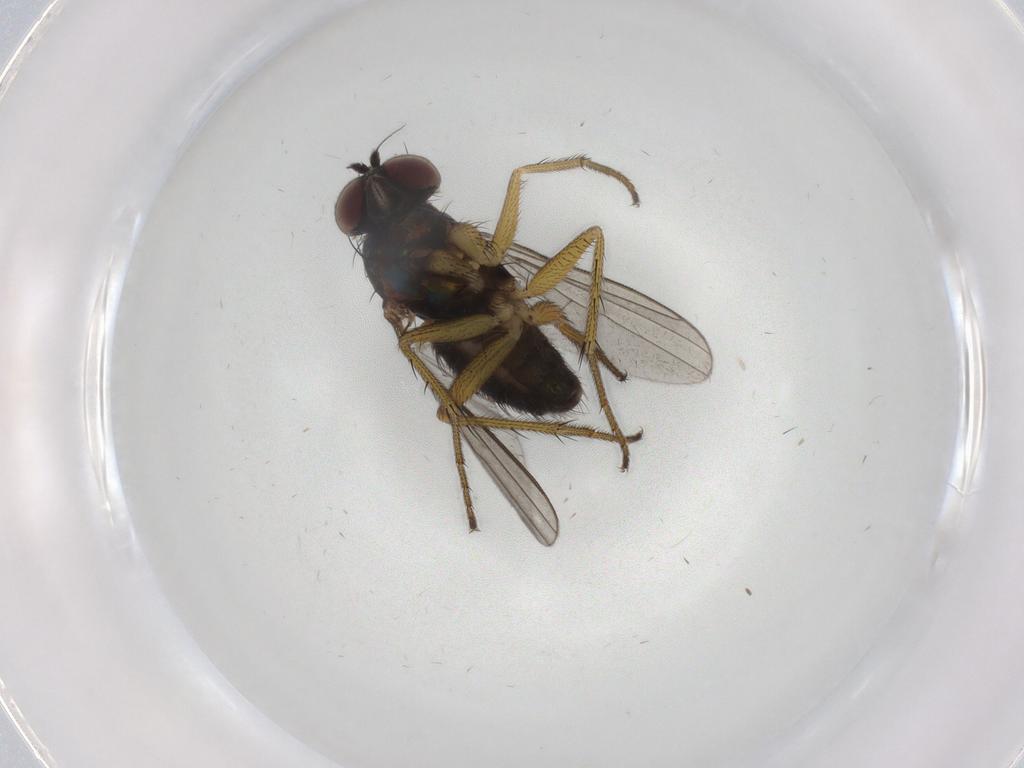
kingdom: Animalia
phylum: Arthropoda
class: Insecta
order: Diptera
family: Dolichopodidae
